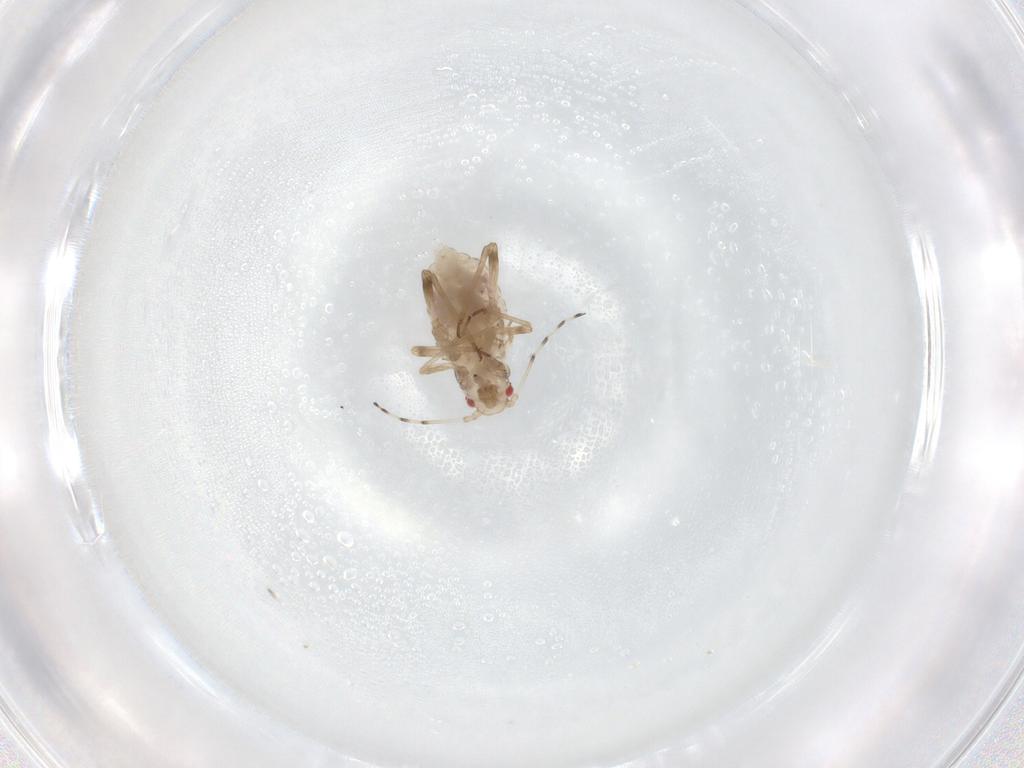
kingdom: Animalia
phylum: Arthropoda
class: Insecta
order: Hemiptera
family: Aphididae
